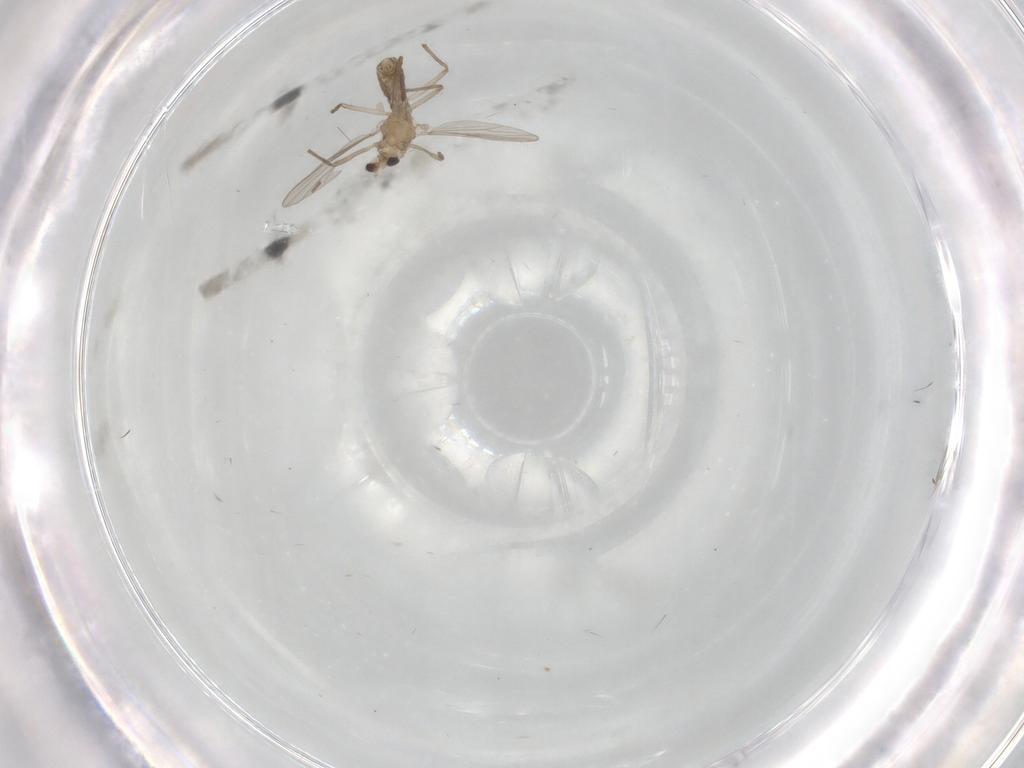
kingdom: Animalia
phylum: Arthropoda
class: Insecta
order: Diptera
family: Chironomidae
